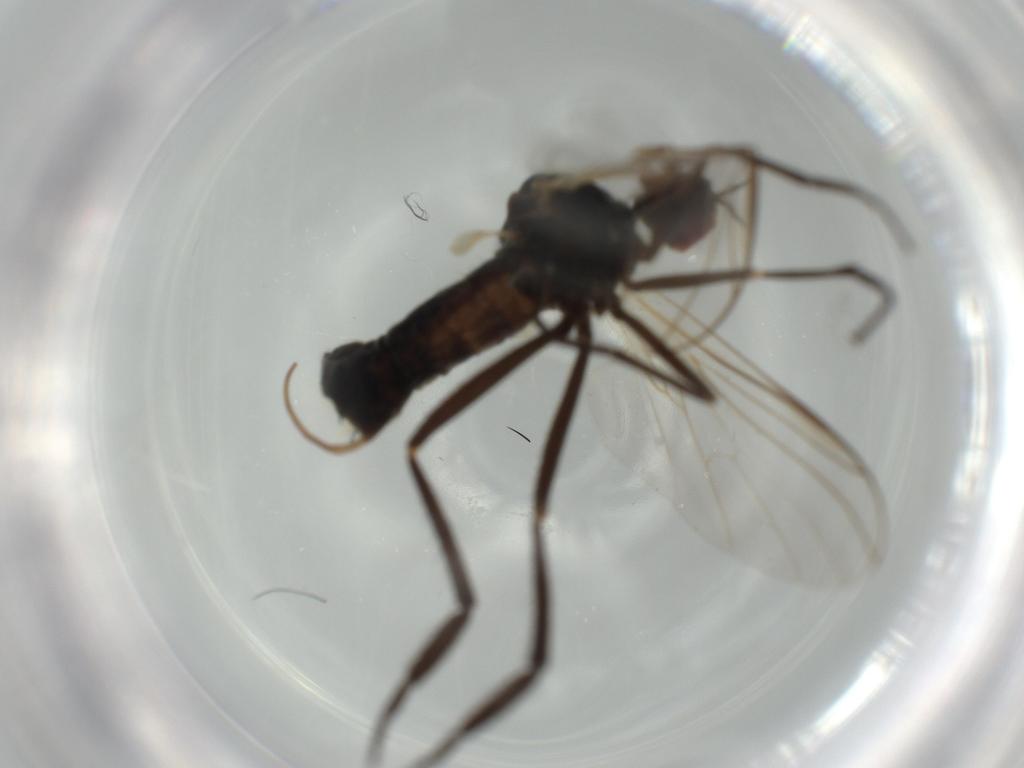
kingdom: Animalia
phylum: Arthropoda
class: Insecta
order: Diptera
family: Empididae
